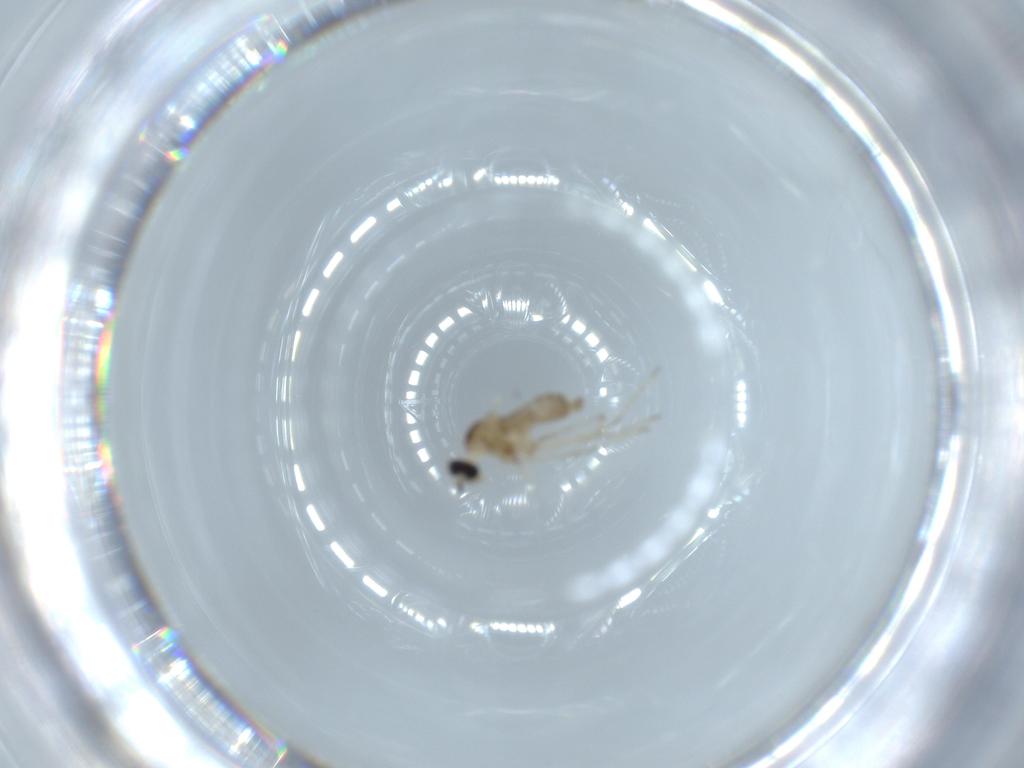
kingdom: Animalia
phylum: Arthropoda
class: Insecta
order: Diptera
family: Cecidomyiidae
